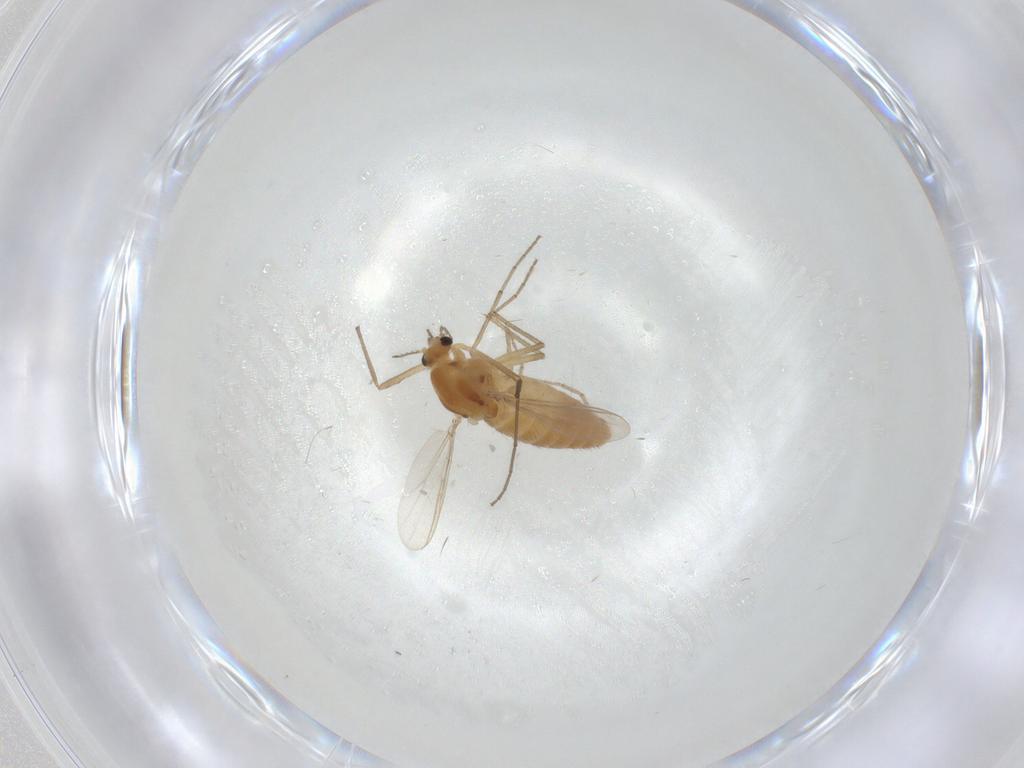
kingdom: Animalia
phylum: Arthropoda
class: Insecta
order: Diptera
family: Chironomidae
